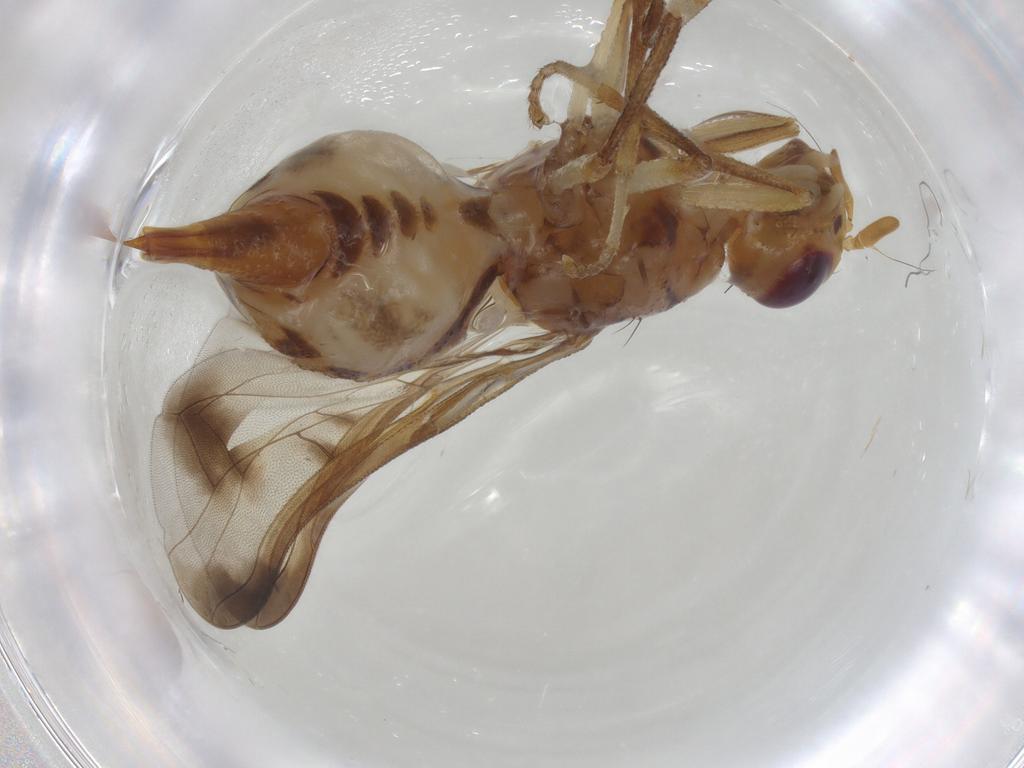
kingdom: Animalia
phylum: Arthropoda
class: Insecta
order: Diptera
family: Tephritidae
